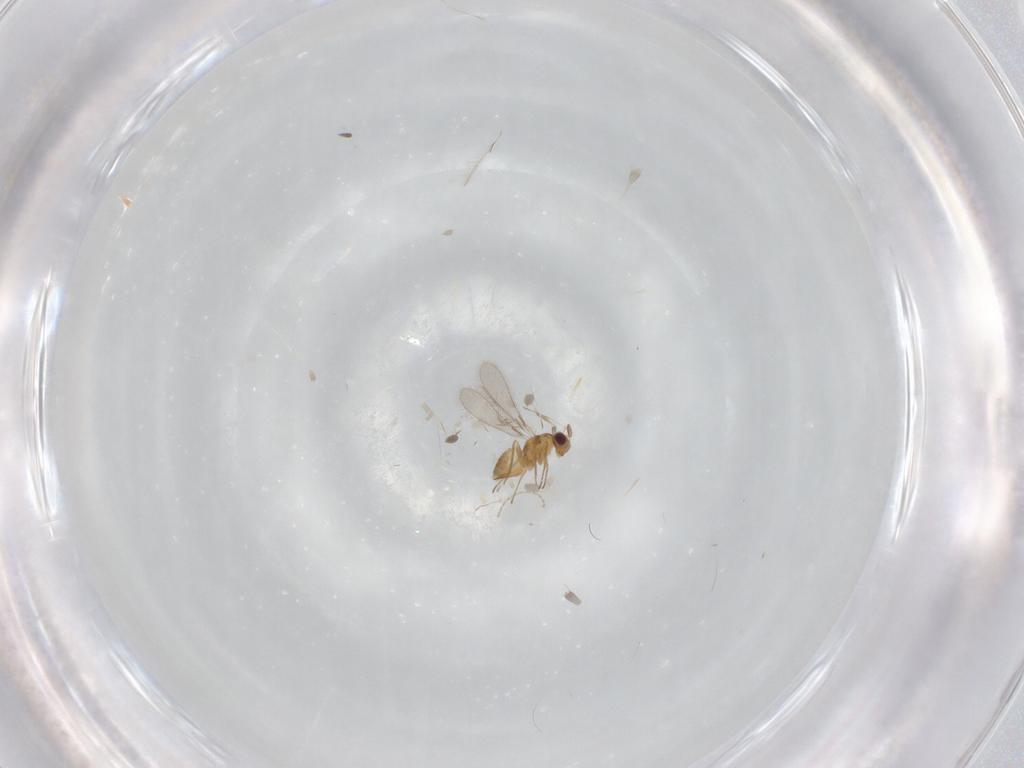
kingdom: Animalia
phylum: Arthropoda
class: Insecta
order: Hymenoptera
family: Mymaridae
